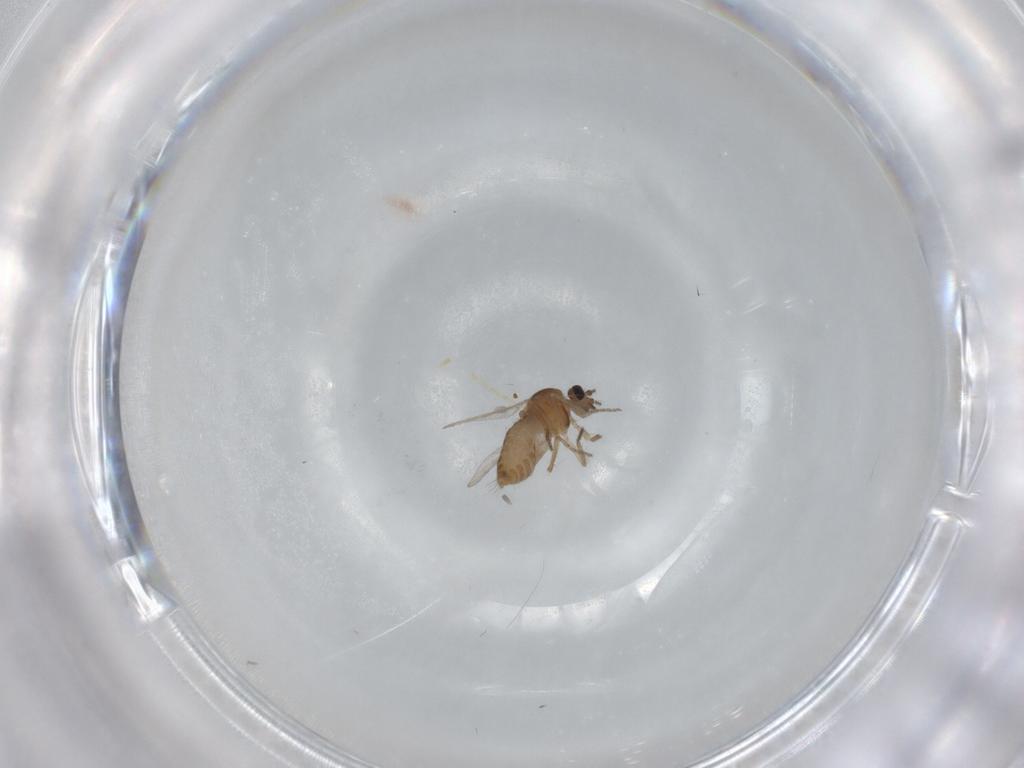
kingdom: Animalia
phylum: Arthropoda
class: Insecta
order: Diptera
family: Ceratopogonidae
